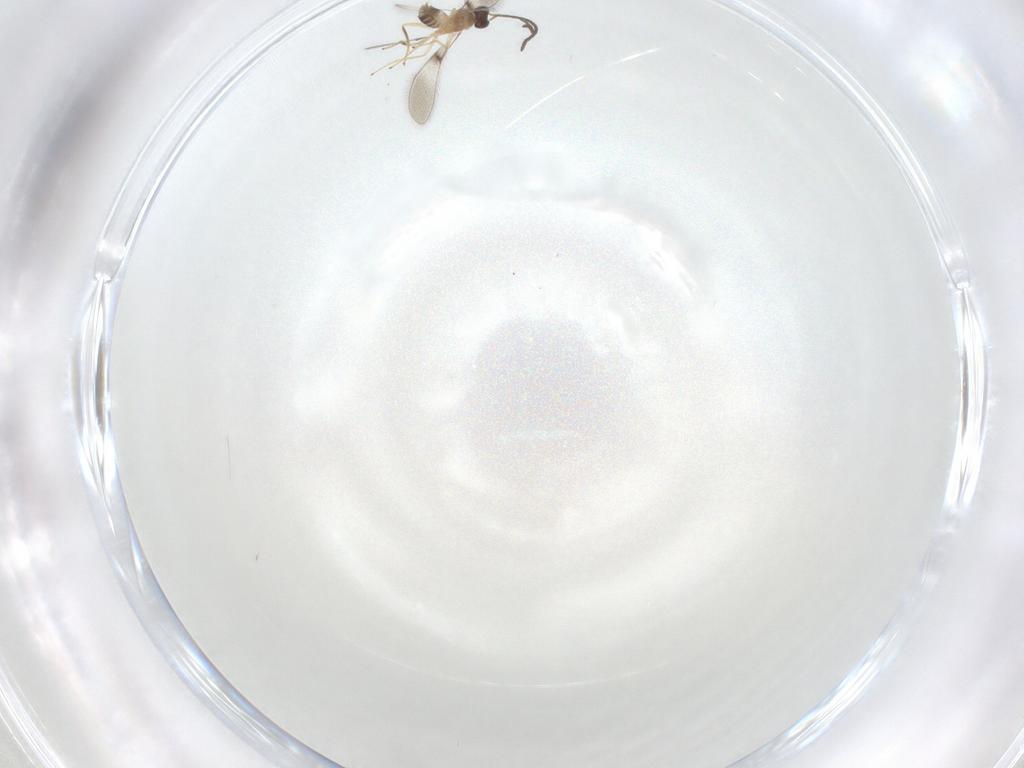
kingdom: Animalia
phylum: Arthropoda
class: Insecta
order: Hymenoptera
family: Mymaridae
